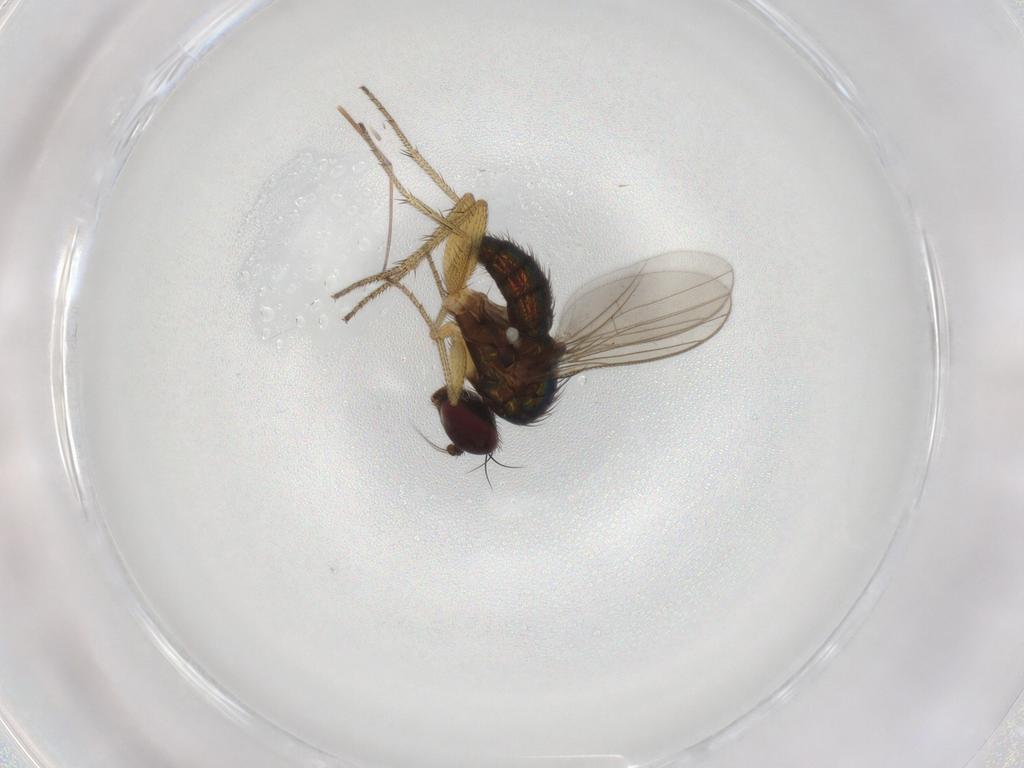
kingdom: Animalia
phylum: Arthropoda
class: Insecta
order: Diptera
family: Dolichopodidae
